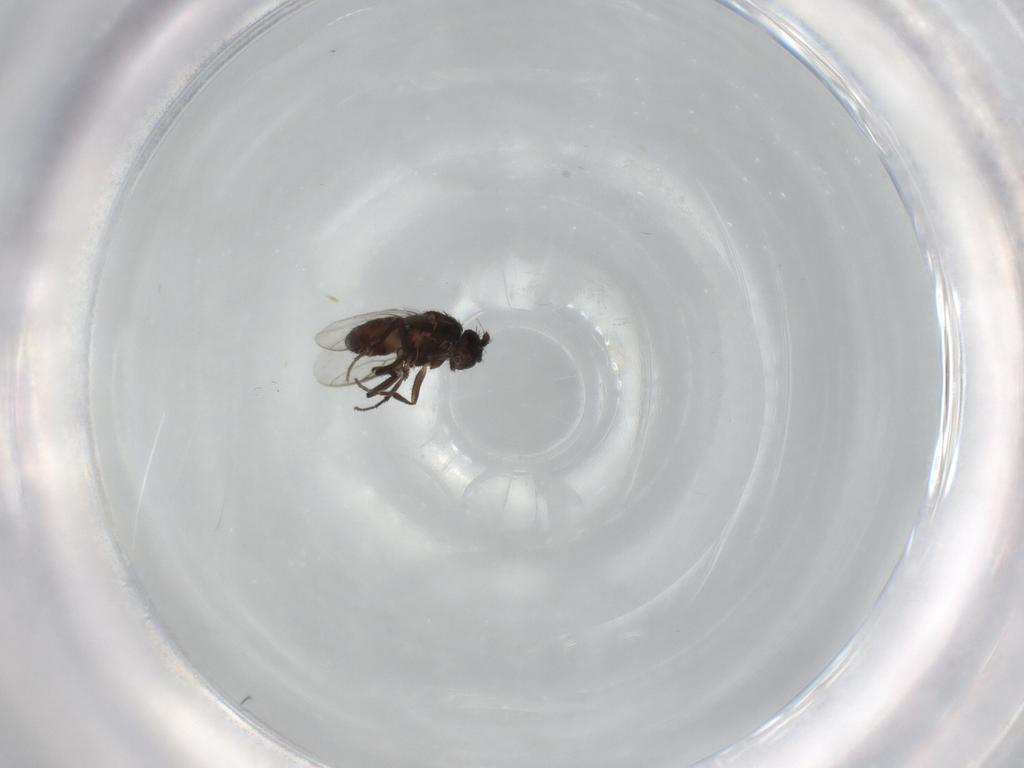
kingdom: Animalia
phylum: Arthropoda
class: Insecta
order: Diptera
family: Sphaeroceridae
